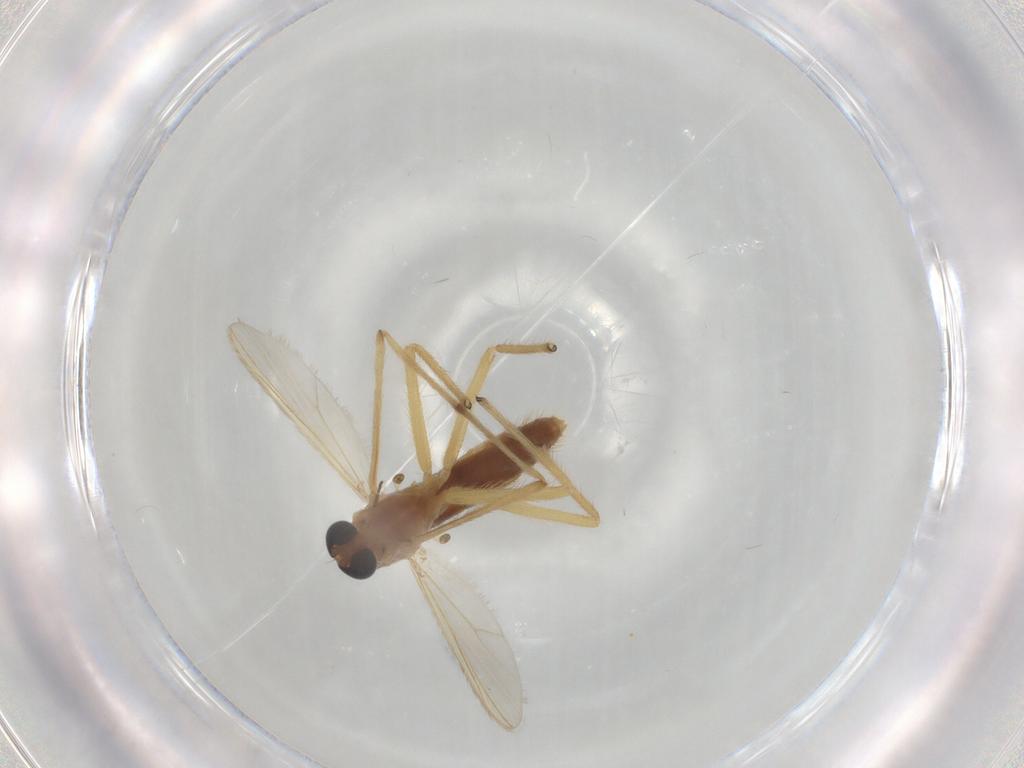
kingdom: Animalia
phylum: Arthropoda
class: Insecta
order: Diptera
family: Chironomidae
